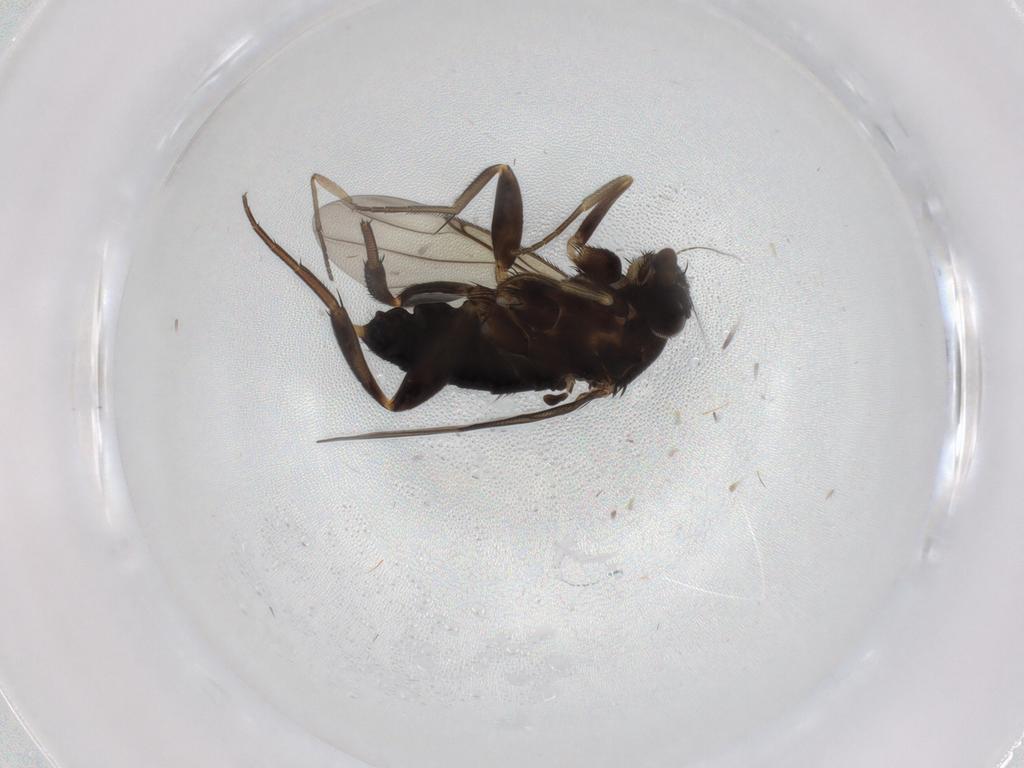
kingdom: Animalia
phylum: Arthropoda
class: Insecta
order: Diptera
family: Phoridae
